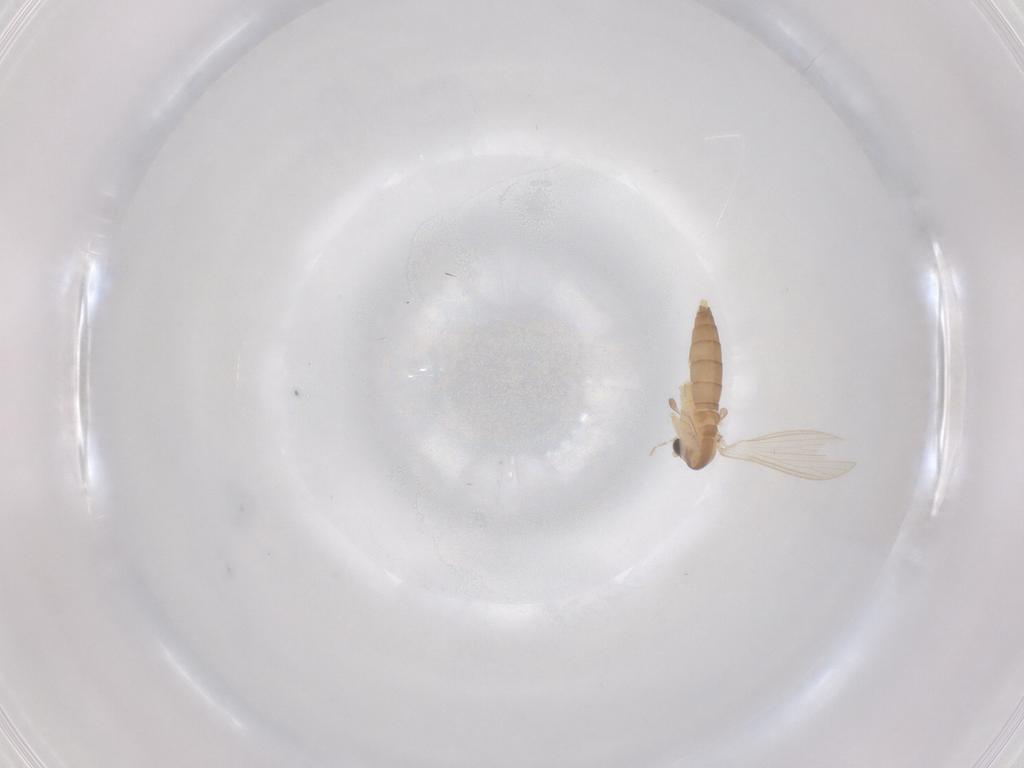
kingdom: Animalia
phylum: Arthropoda
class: Insecta
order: Diptera
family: Psychodidae
